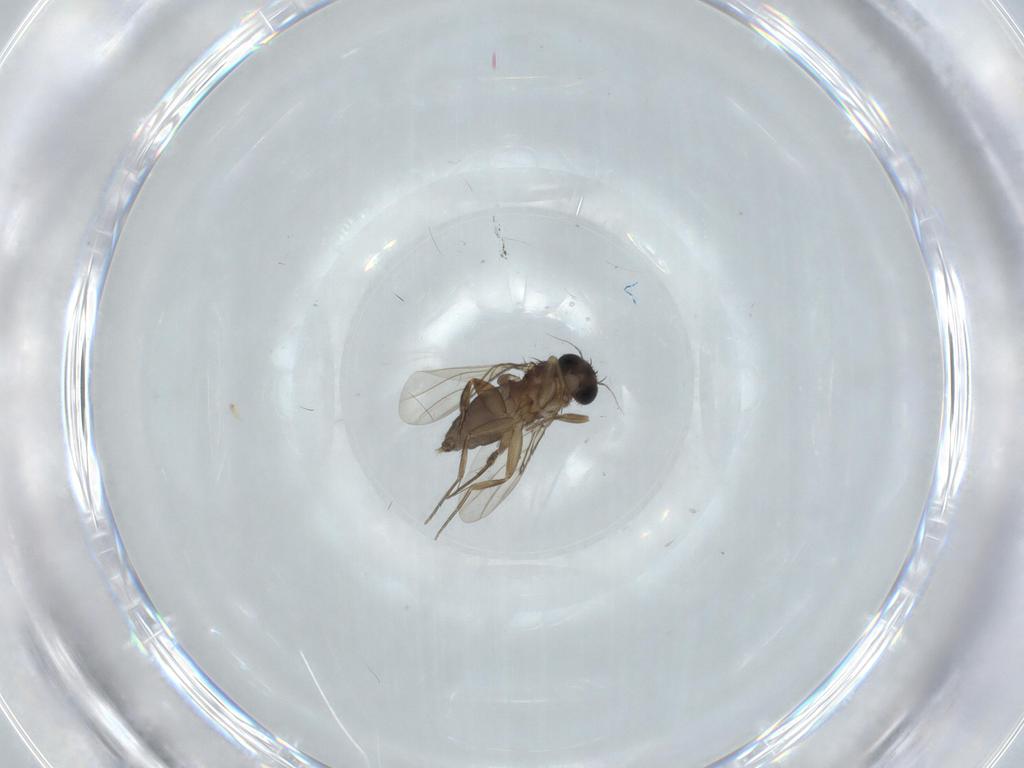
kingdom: Animalia
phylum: Arthropoda
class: Insecta
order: Diptera
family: Phoridae
